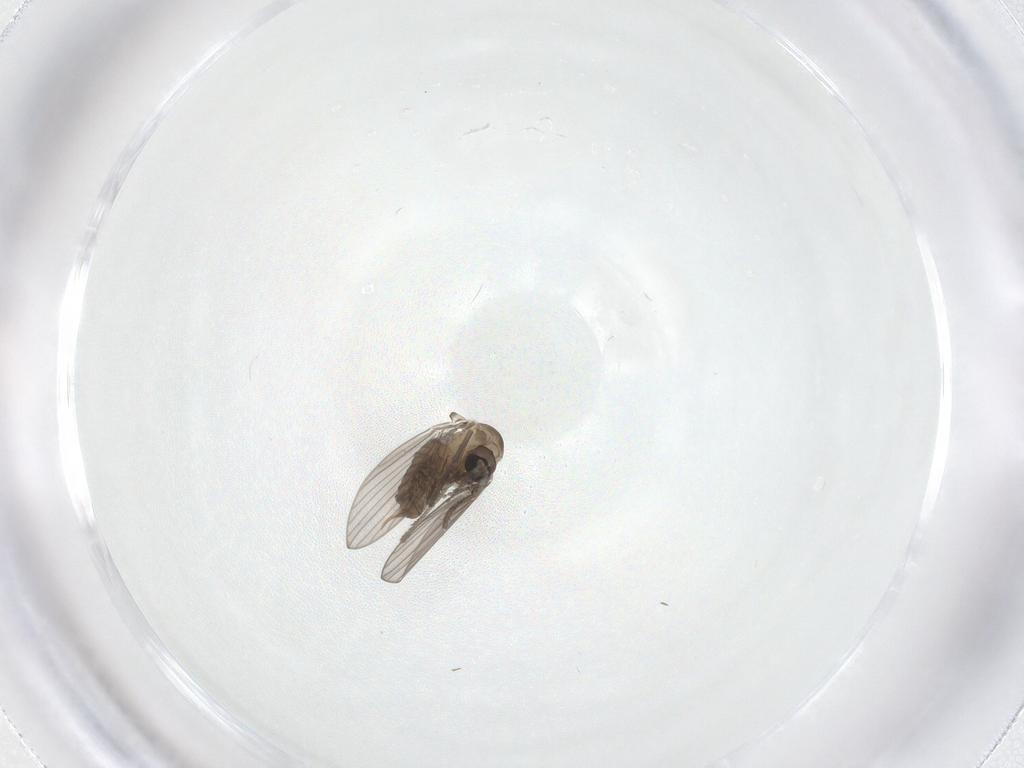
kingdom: Animalia
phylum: Arthropoda
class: Insecta
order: Diptera
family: Psychodidae
